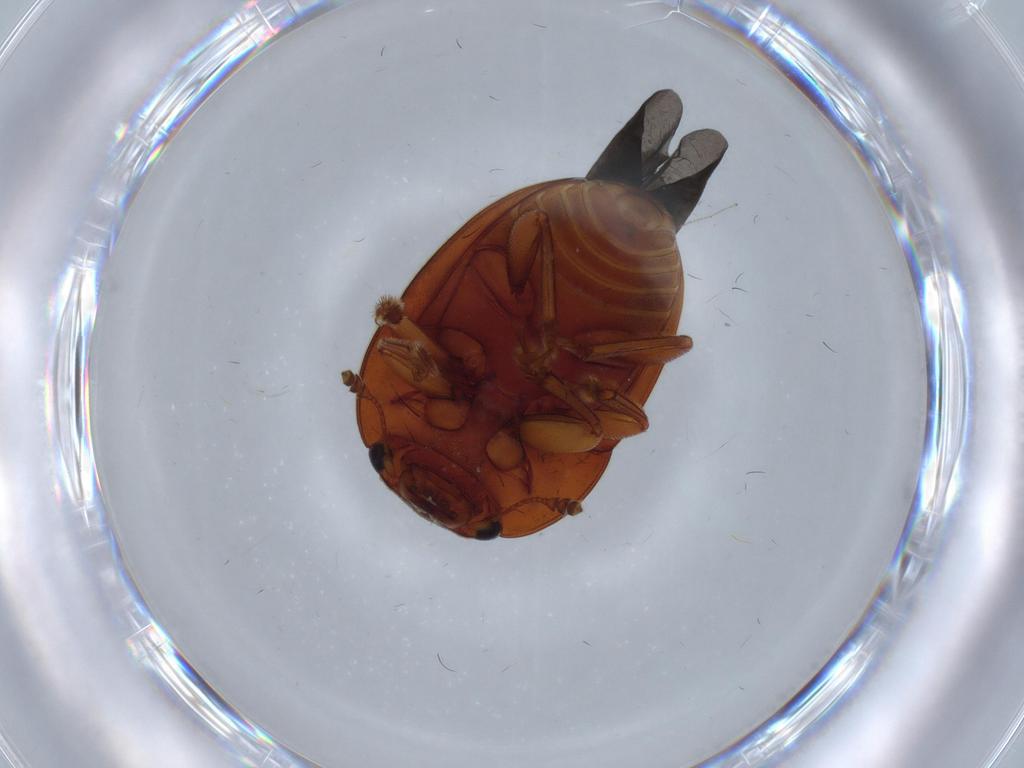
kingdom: Animalia
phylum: Arthropoda
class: Insecta
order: Coleoptera
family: Nitidulidae
